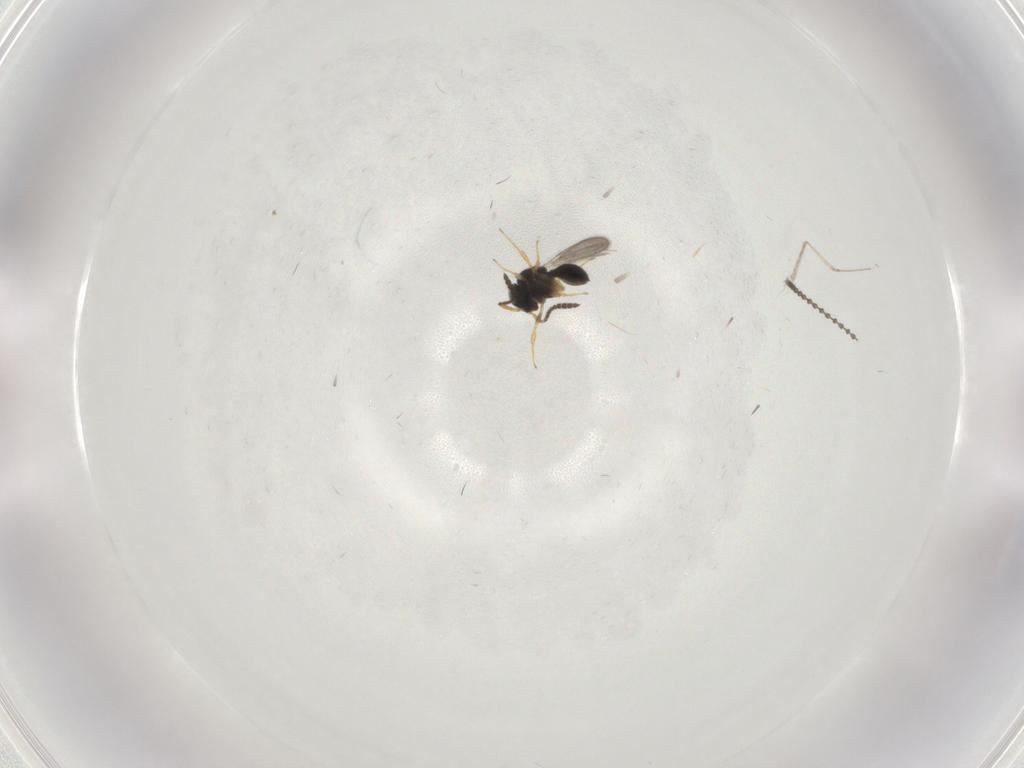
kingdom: Animalia
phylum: Arthropoda
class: Insecta
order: Hymenoptera
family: Scelionidae
